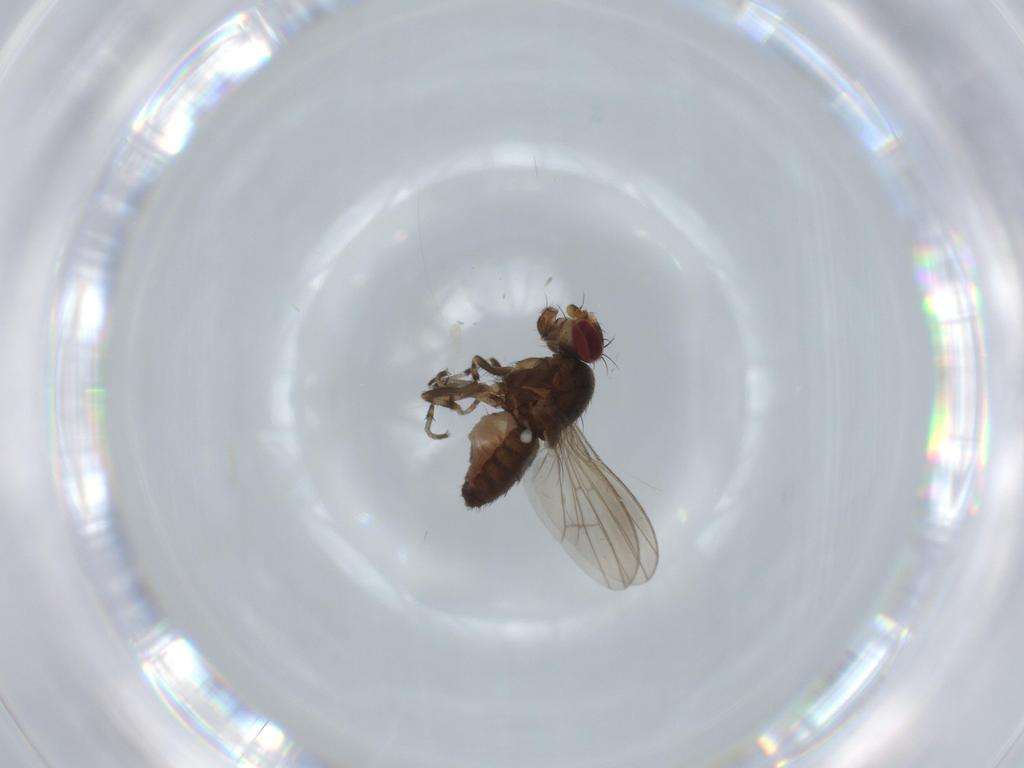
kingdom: Animalia
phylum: Arthropoda
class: Insecta
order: Diptera
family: Heleomyzidae
